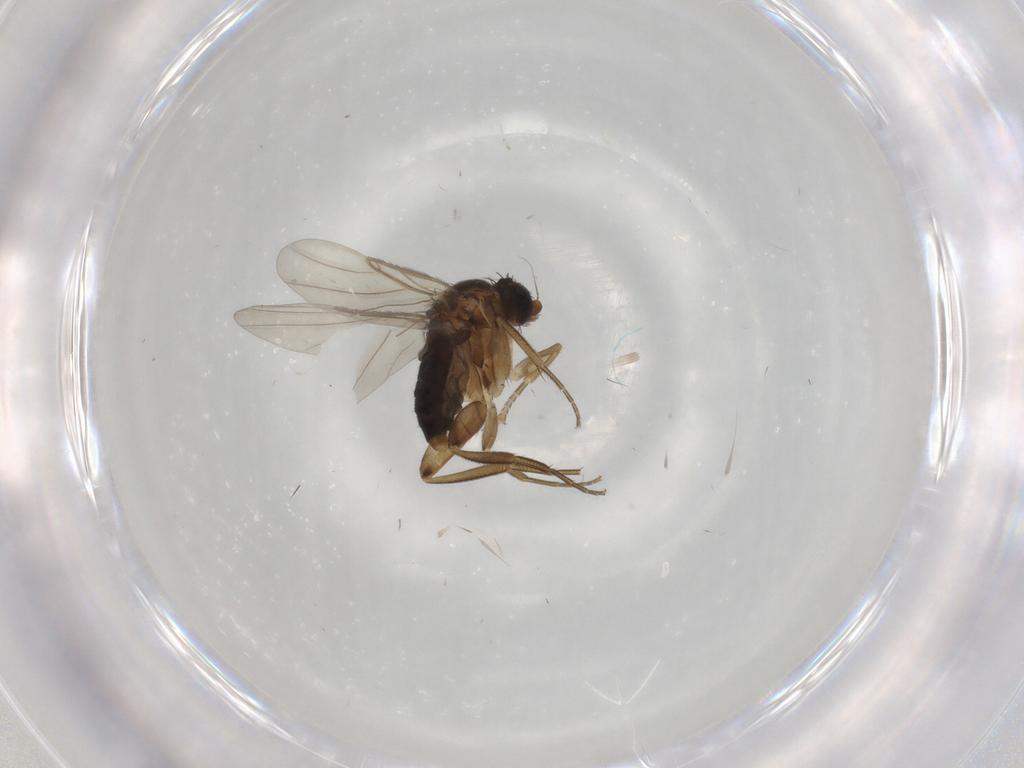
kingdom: Animalia
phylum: Arthropoda
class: Insecta
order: Diptera
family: Phoridae
